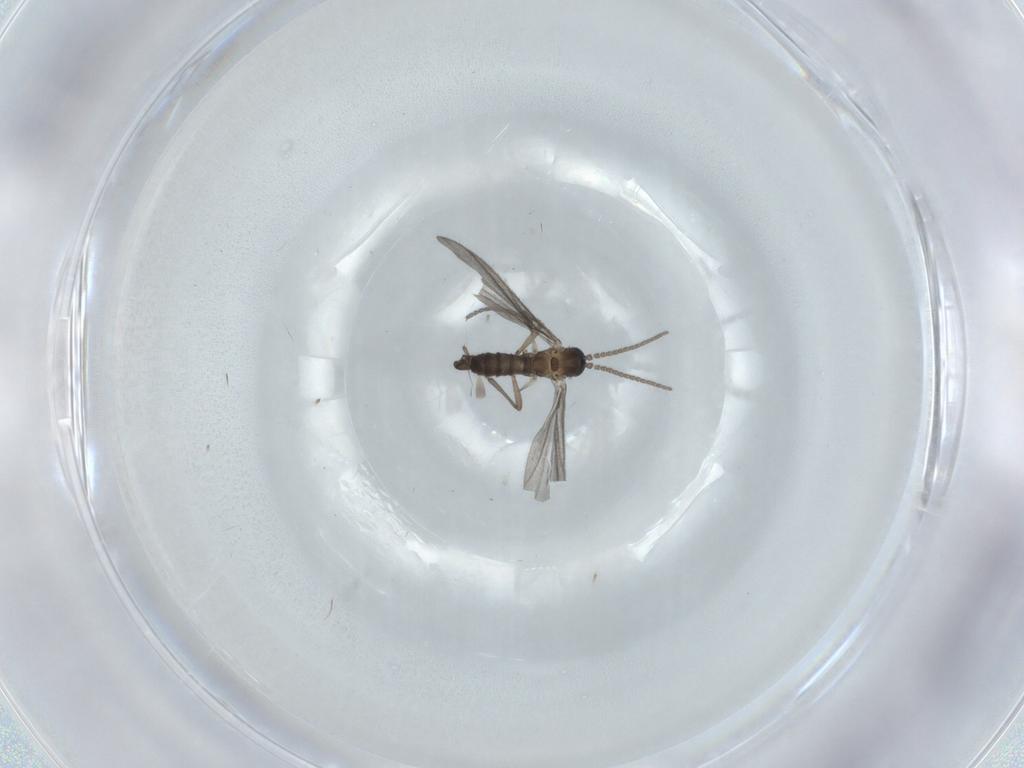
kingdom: Animalia
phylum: Arthropoda
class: Insecta
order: Diptera
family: Sciaridae
